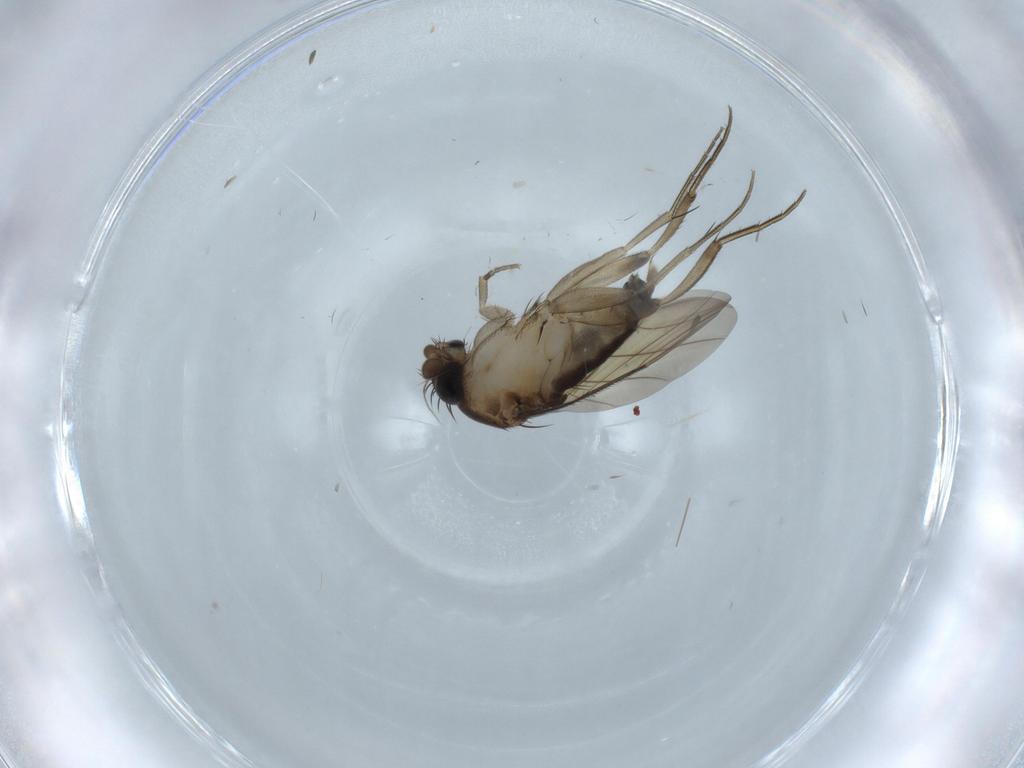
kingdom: Animalia
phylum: Arthropoda
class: Insecta
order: Diptera
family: Phoridae
